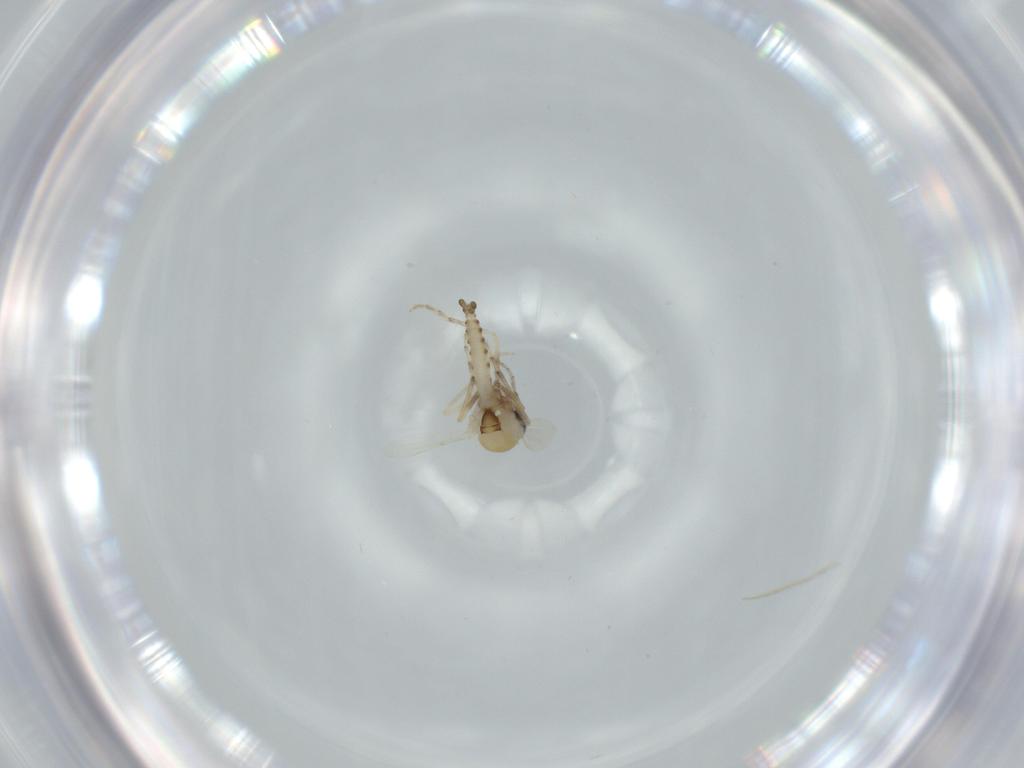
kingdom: Animalia
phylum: Arthropoda
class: Insecta
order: Diptera
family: Ceratopogonidae
